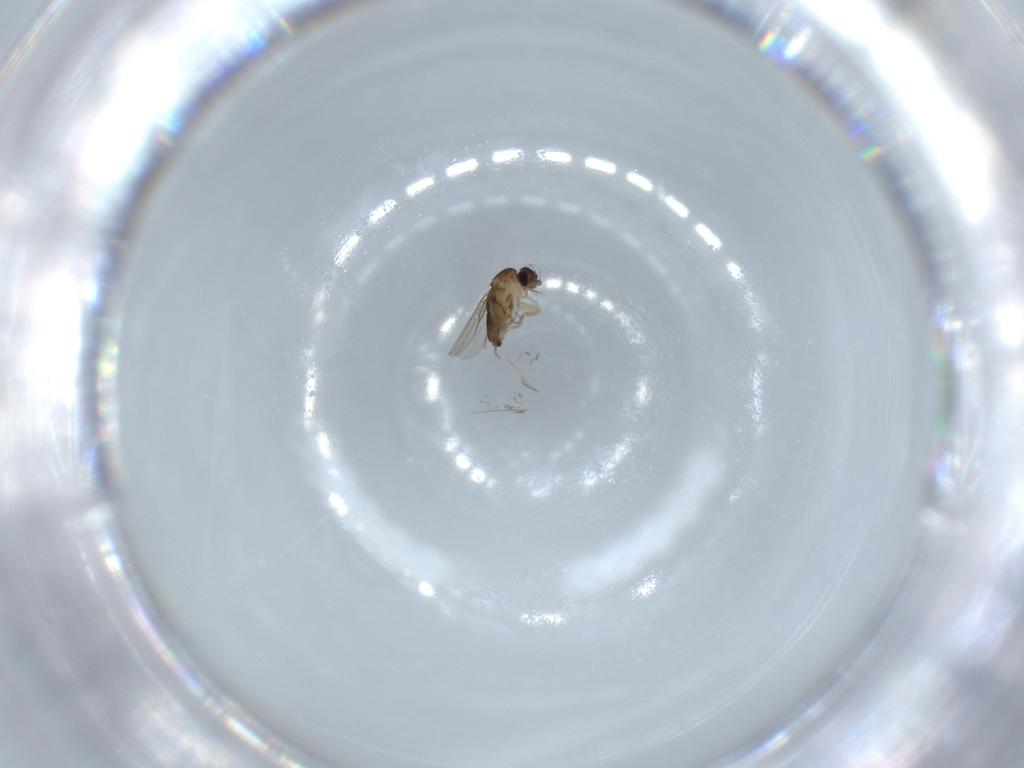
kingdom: Animalia
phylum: Arthropoda
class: Insecta
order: Diptera
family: Phoridae
